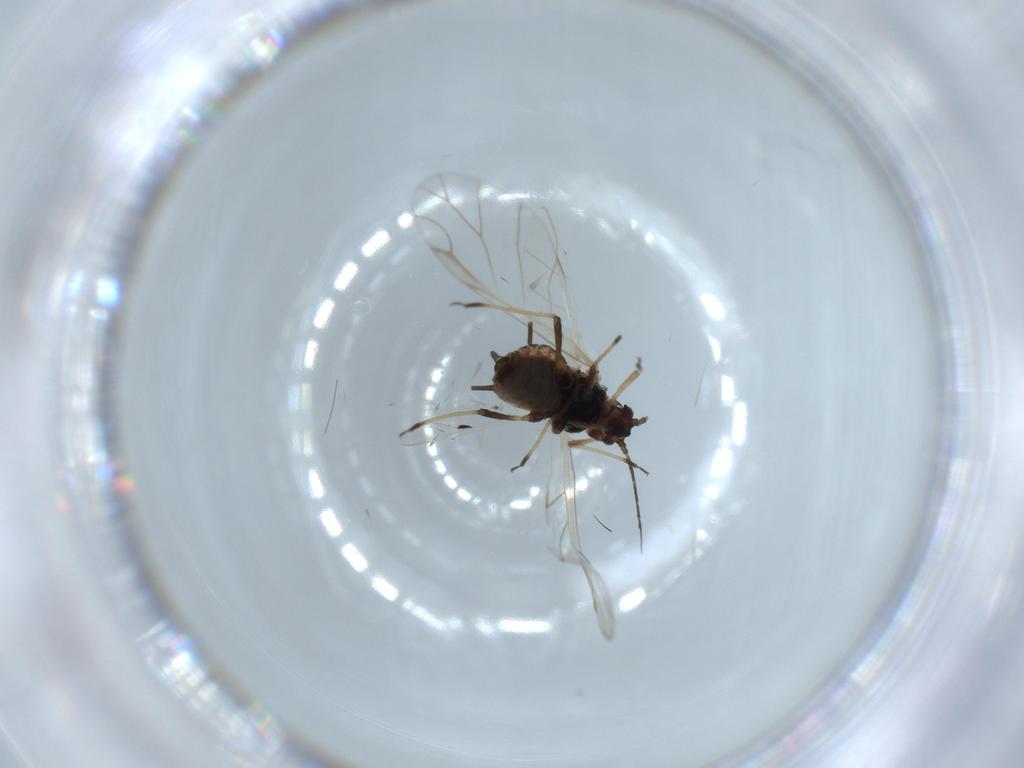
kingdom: Animalia
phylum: Arthropoda
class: Insecta
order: Hemiptera
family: Aphididae
